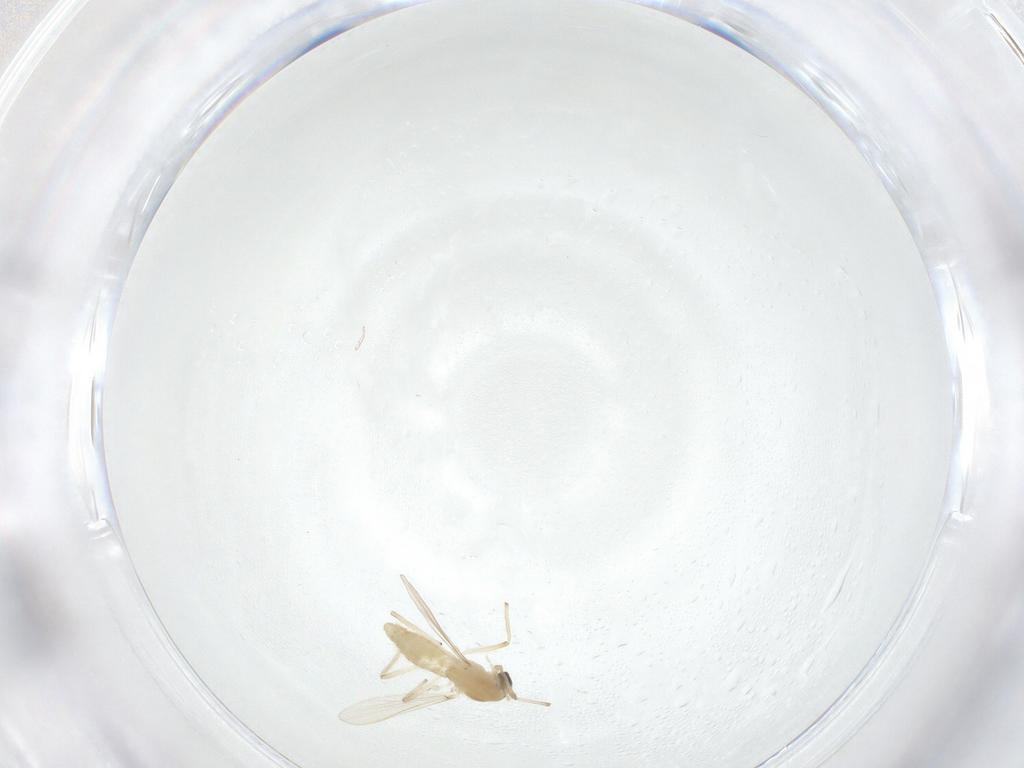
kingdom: Animalia
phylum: Arthropoda
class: Insecta
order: Diptera
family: Chironomidae
